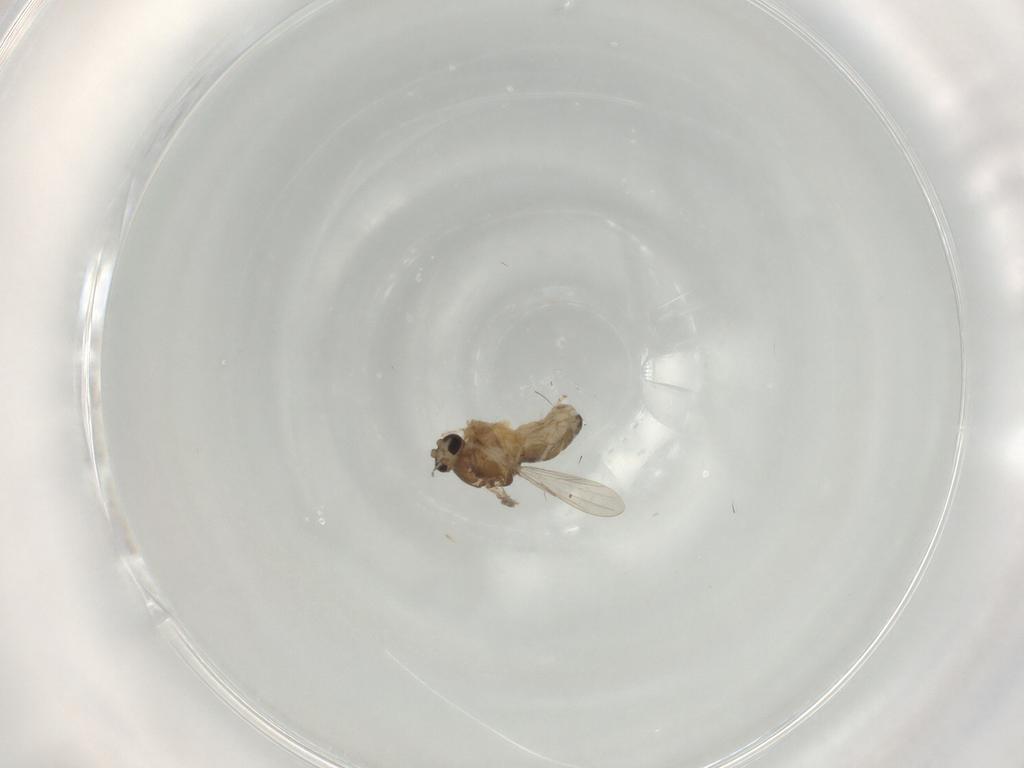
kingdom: Animalia
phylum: Arthropoda
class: Insecta
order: Diptera
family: Ceratopogonidae
